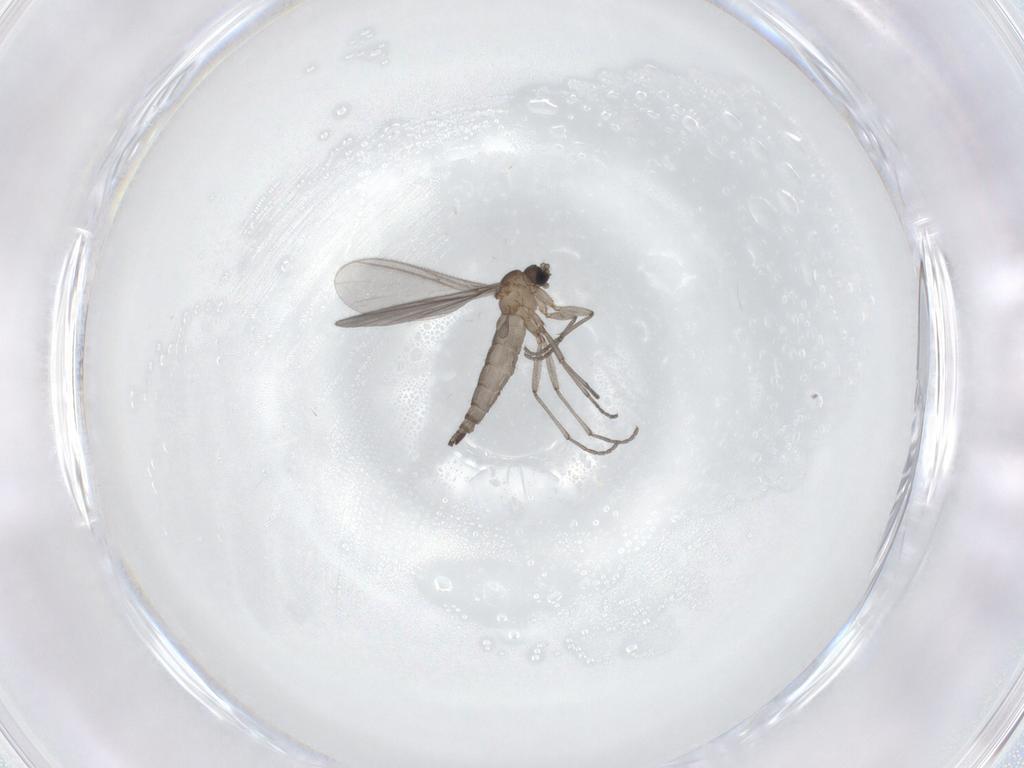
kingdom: Animalia
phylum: Arthropoda
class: Insecta
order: Diptera
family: Sciaridae
